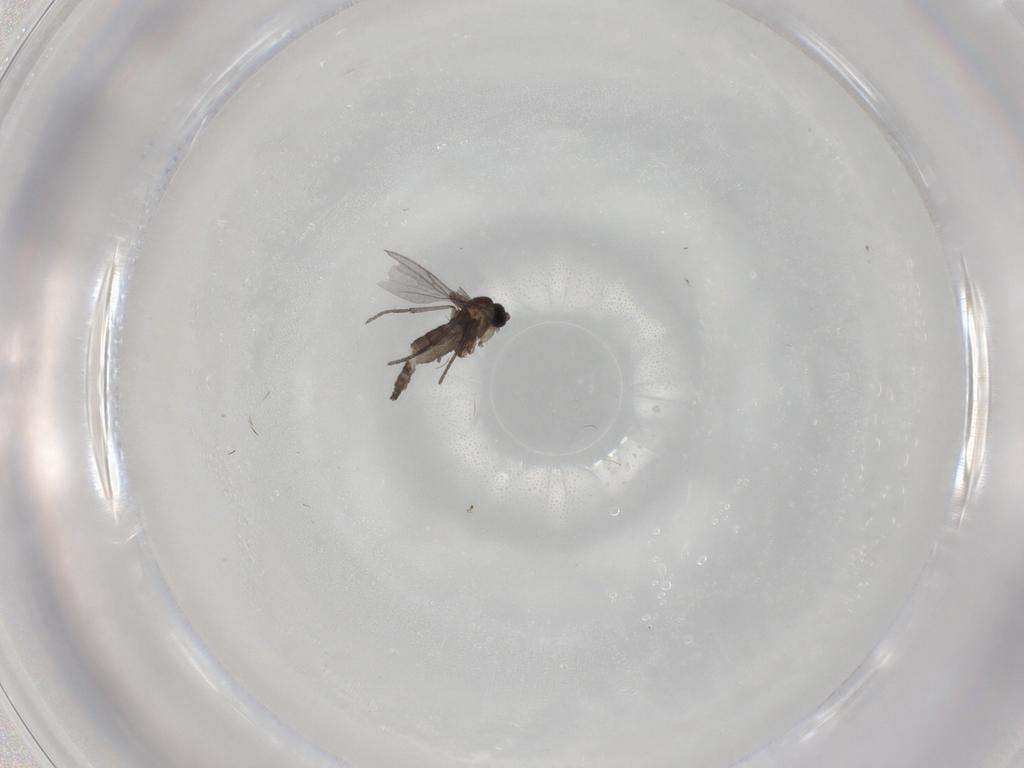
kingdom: Animalia
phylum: Arthropoda
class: Insecta
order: Diptera
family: Sciaridae
